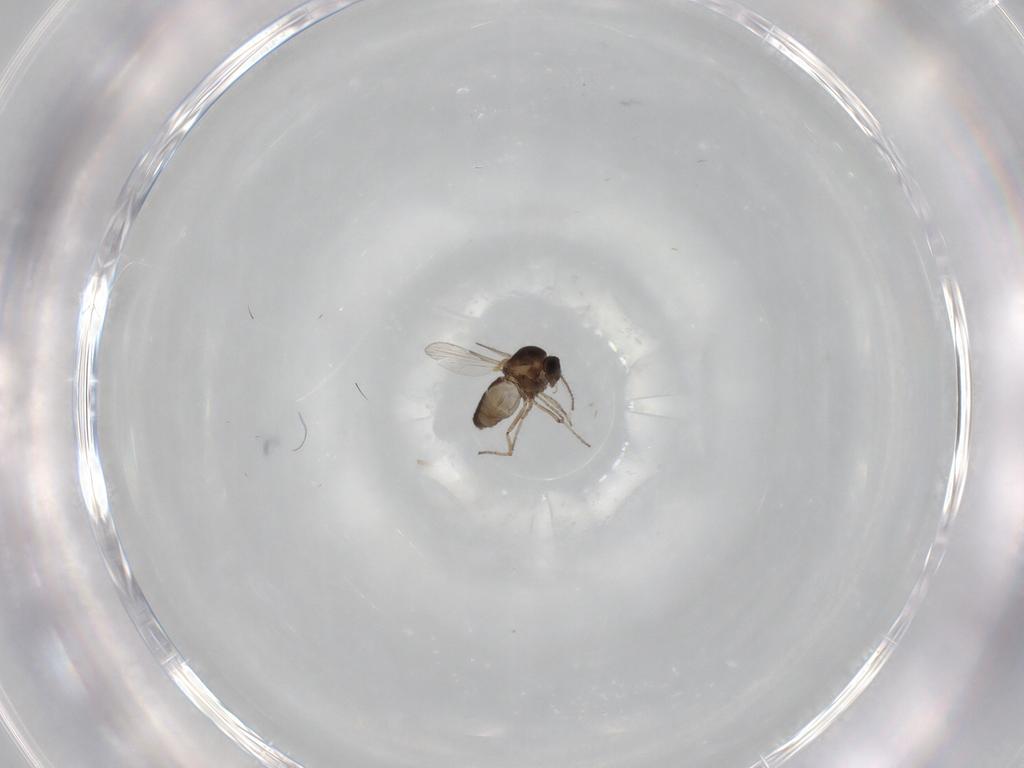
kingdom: Animalia
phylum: Arthropoda
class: Insecta
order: Diptera
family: Ceratopogonidae
